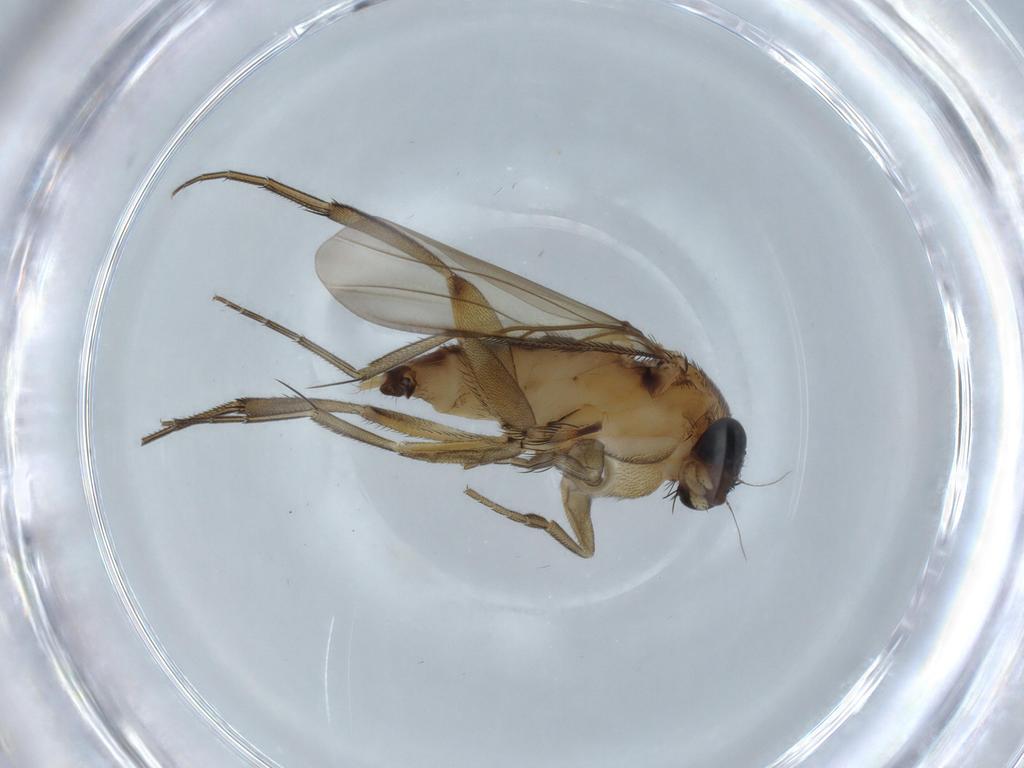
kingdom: Animalia
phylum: Arthropoda
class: Insecta
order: Diptera
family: Phoridae
